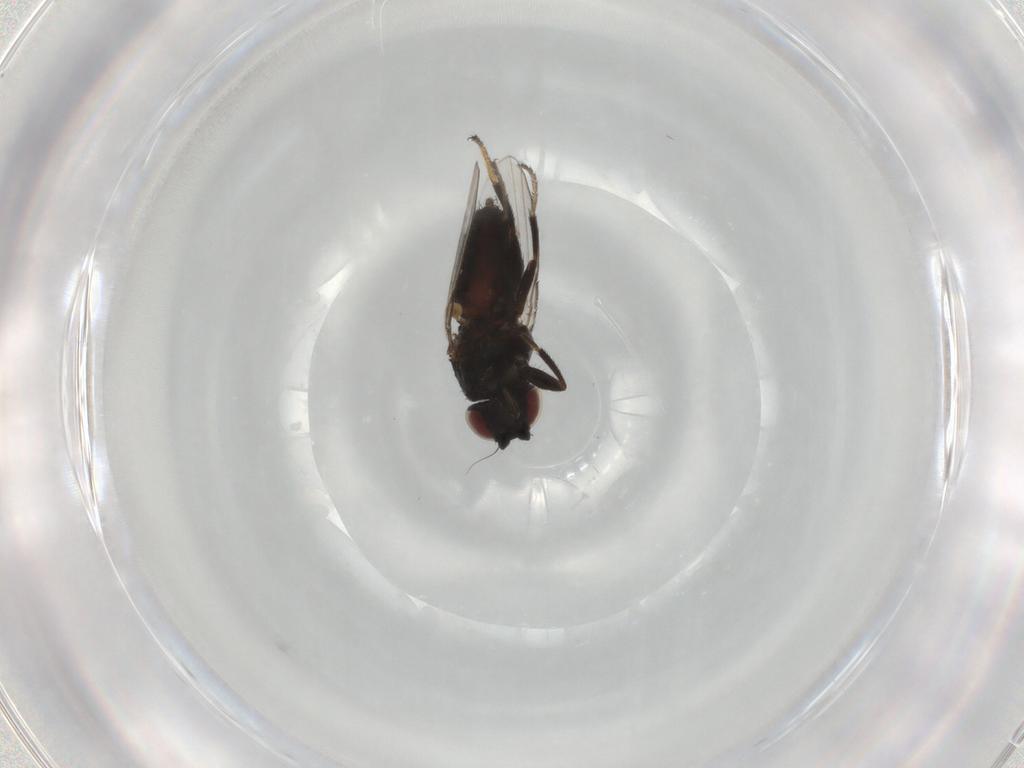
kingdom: Animalia
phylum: Arthropoda
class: Insecta
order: Diptera
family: Milichiidae
